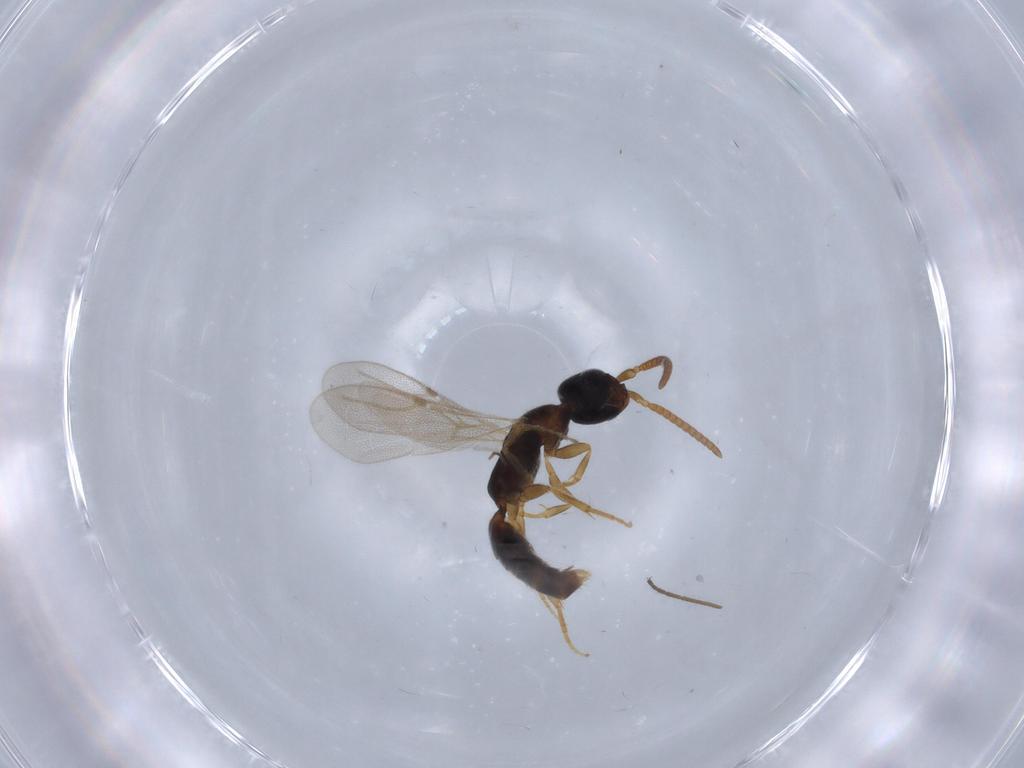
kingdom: Animalia
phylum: Arthropoda
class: Insecta
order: Hymenoptera
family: Bethylidae
